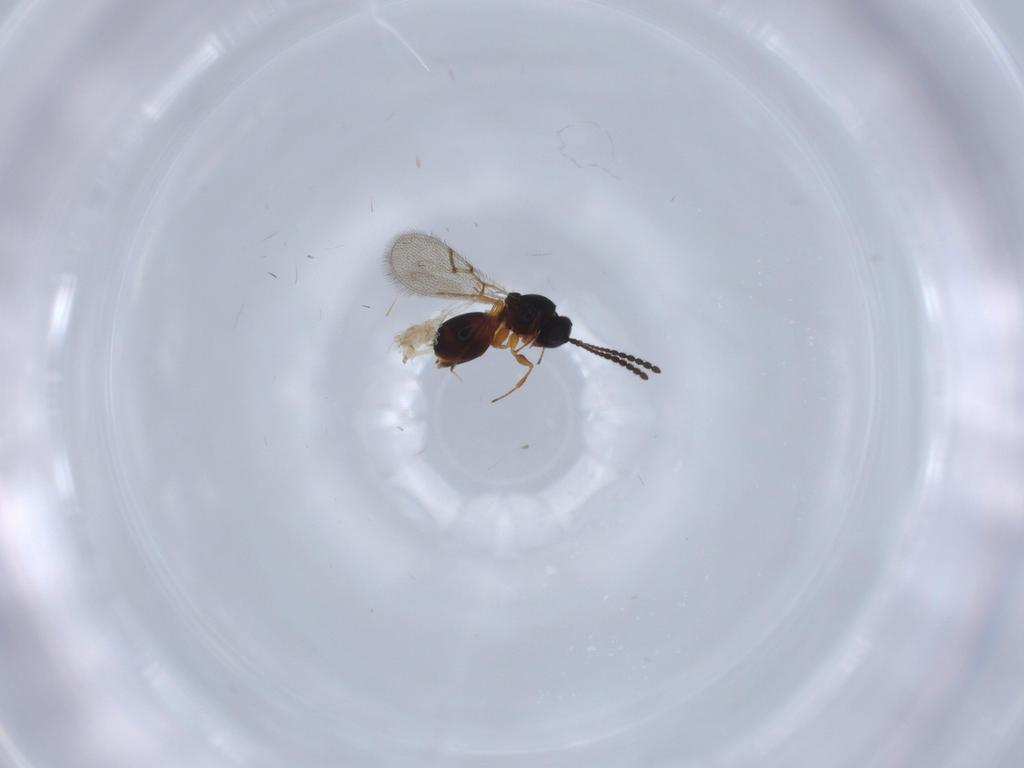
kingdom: Animalia
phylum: Arthropoda
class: Insecta
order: Hymenoptera
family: Figitidae
